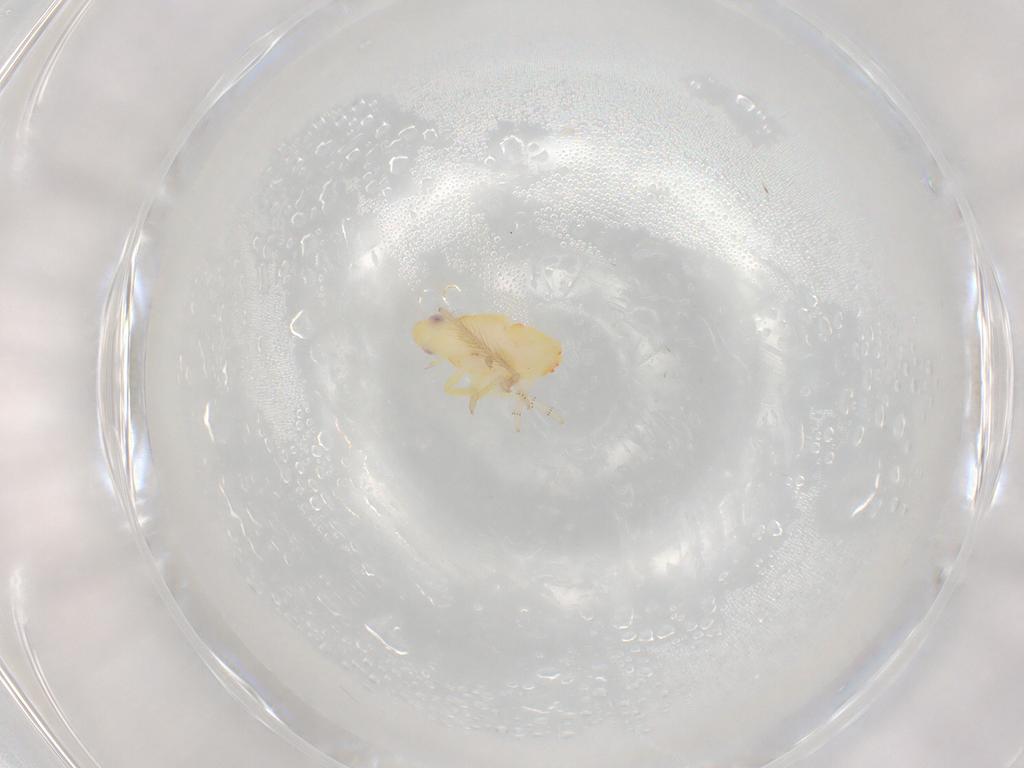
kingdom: Animalia
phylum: Arthropoda
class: Insecta
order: Hemiptera
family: Tropiduchidae
